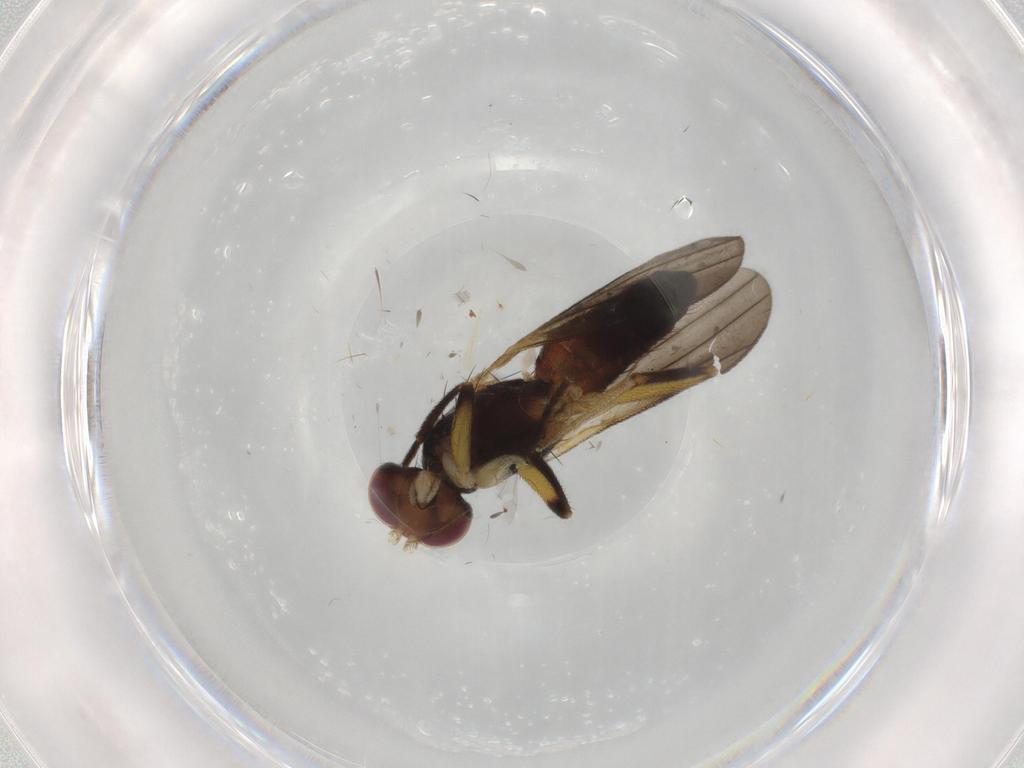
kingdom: Animalia
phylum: Arthropoda
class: Insecta
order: Diptera
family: Clusiidae
